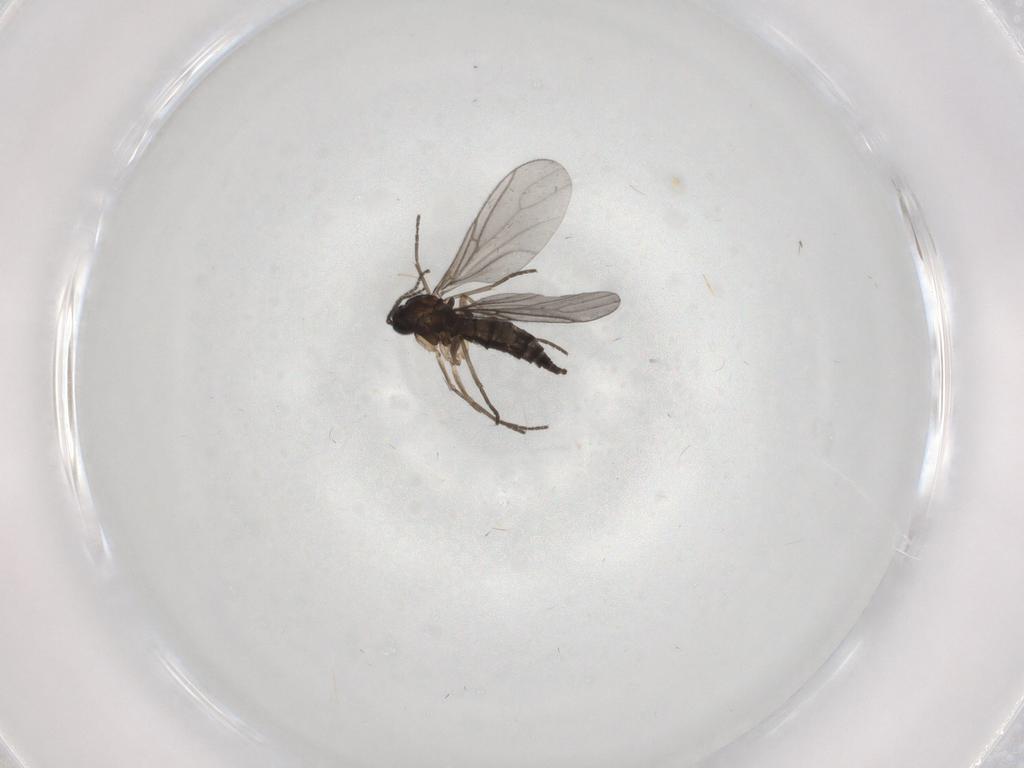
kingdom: Animalia
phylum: Arthropoda
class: Insecta
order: Diptera
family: Sciaridae
